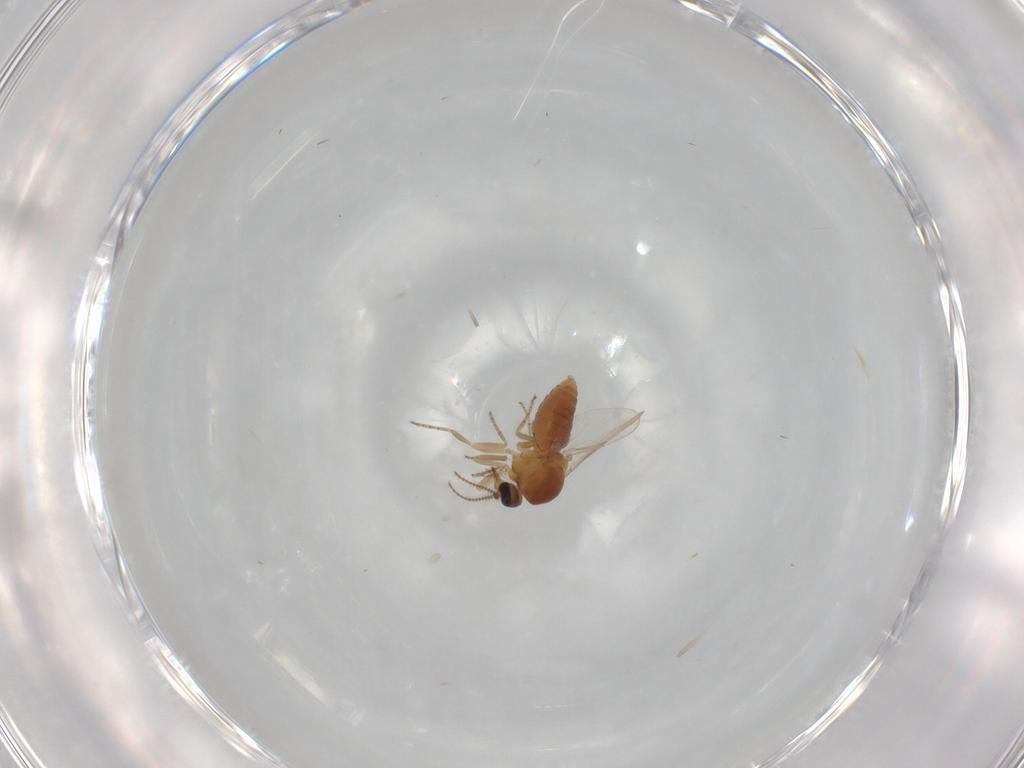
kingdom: Animalia
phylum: Arthropoda
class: Insecta
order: Diptera
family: Ceratopogonidae
